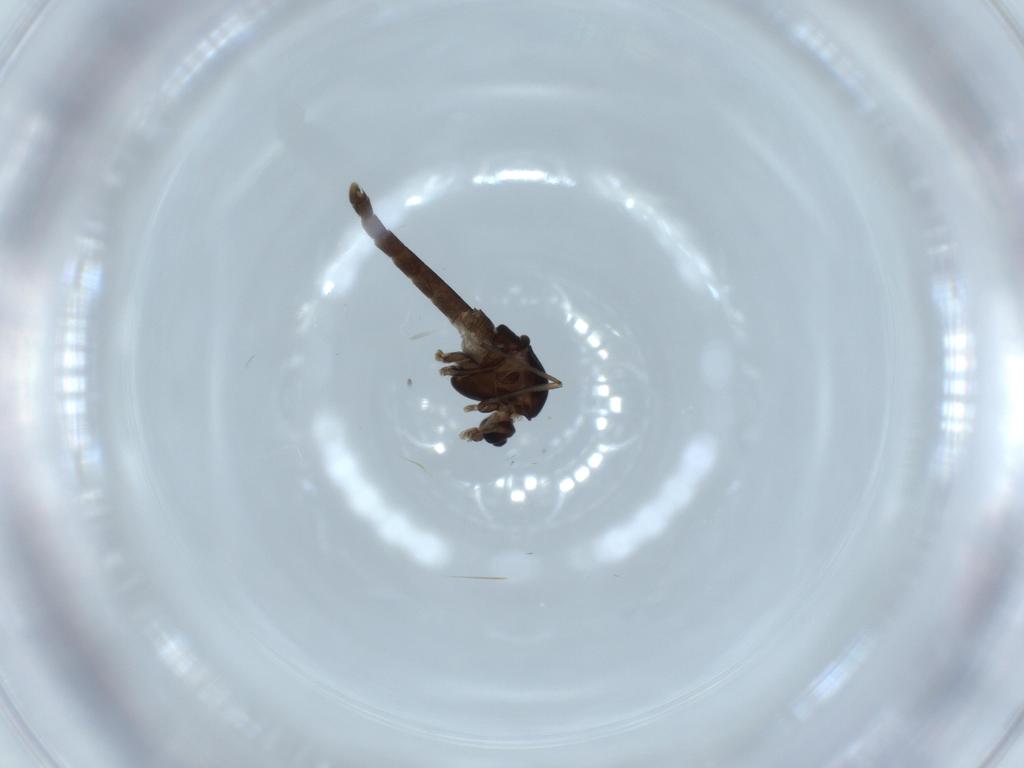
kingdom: Animalia
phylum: Arthropoda
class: Insecta
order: Diptera
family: Chironomidae
